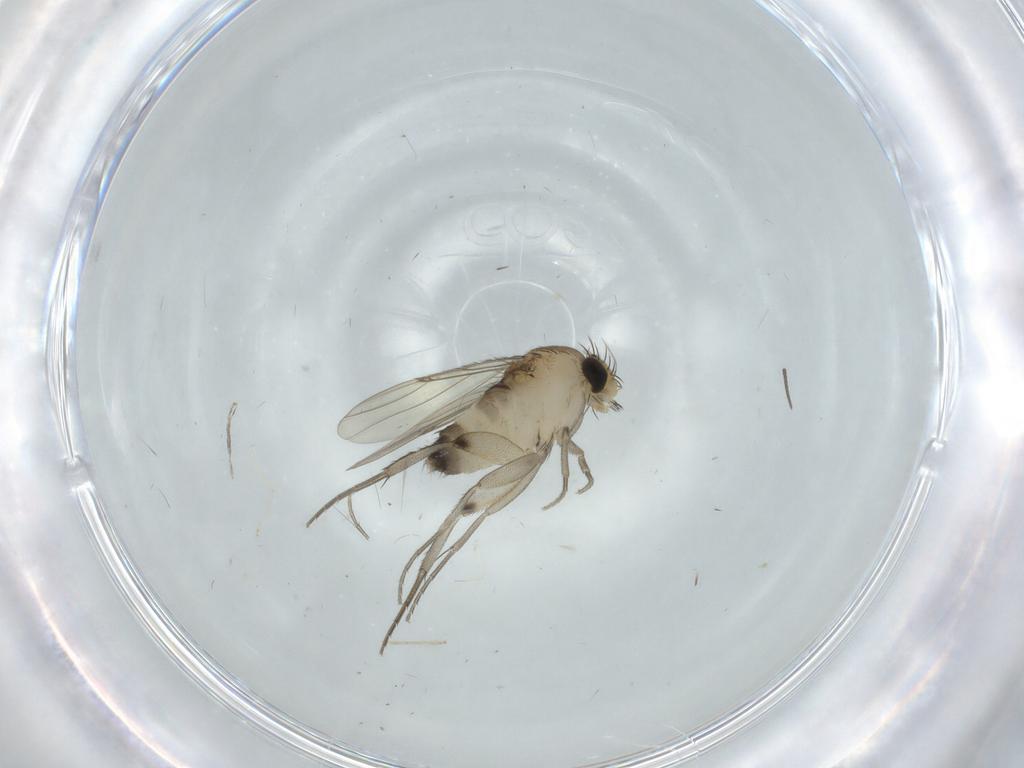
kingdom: Animalia
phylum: Arthropoda
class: Insecta
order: Diptera
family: Phoridae
